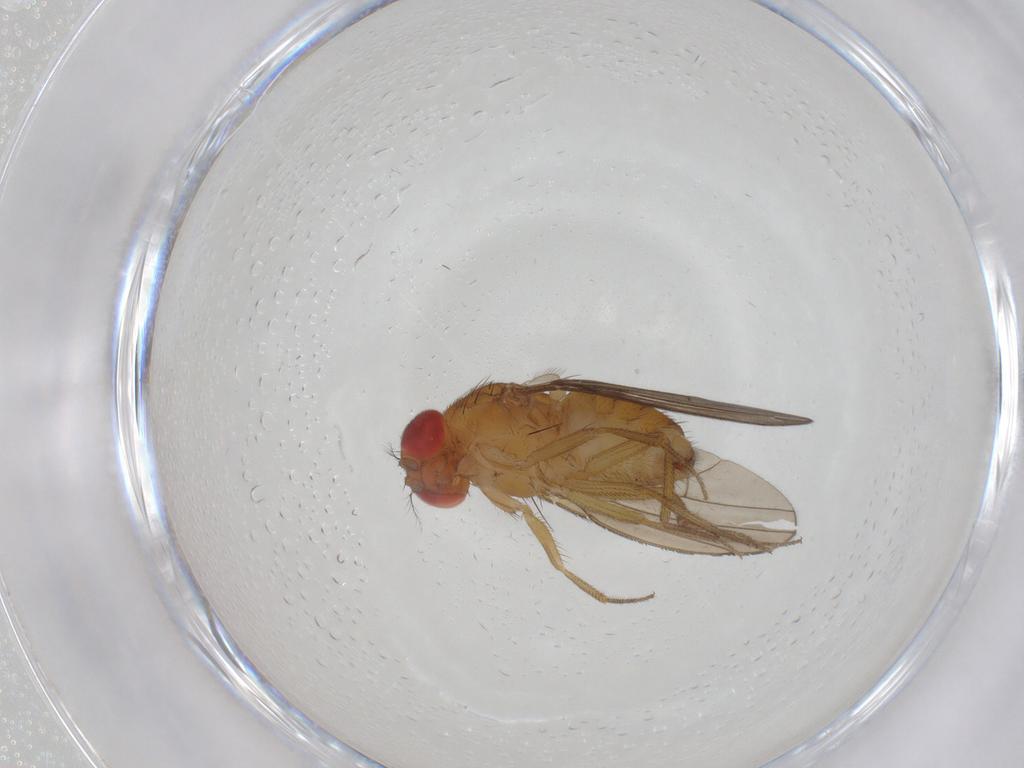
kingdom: Animalia
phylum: Arthropoda
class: Insecta
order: Diptera
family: Drosophilidae
